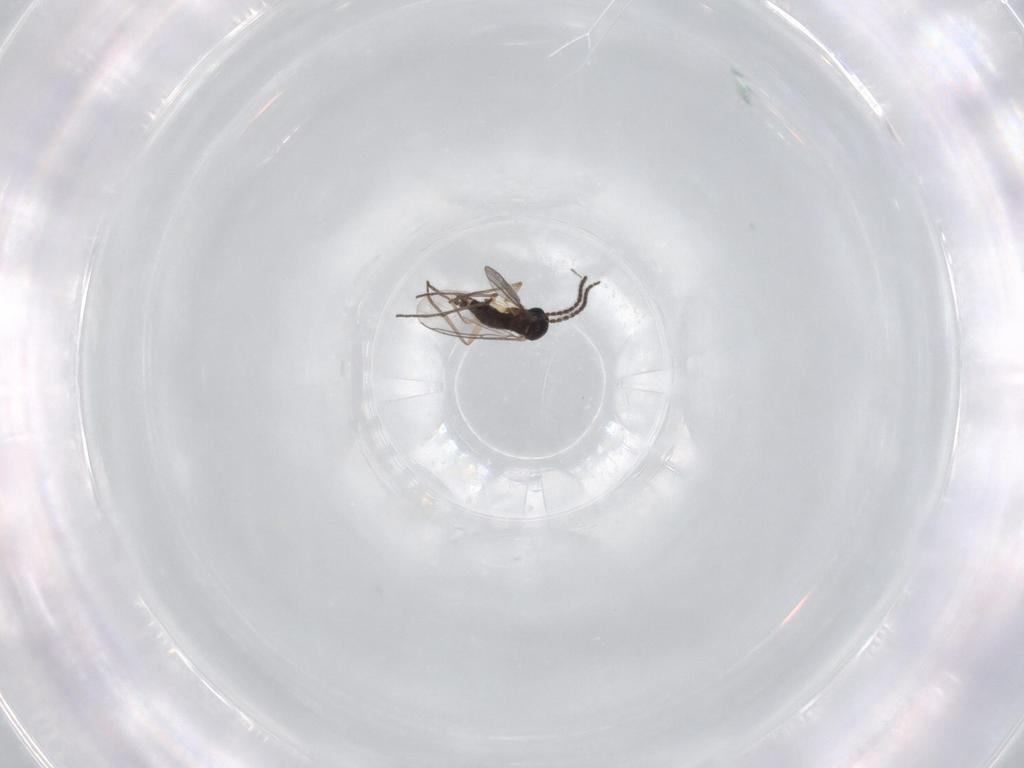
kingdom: Animalia
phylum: Arthropoda
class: Insecta
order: Diptera
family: Sciaridae
